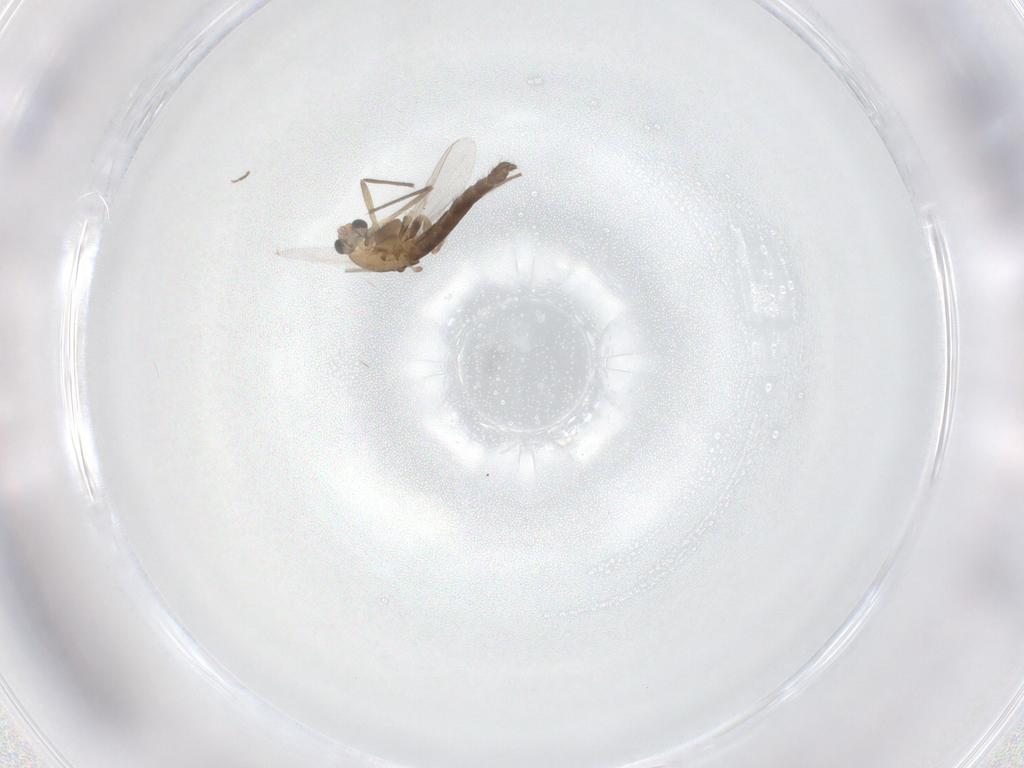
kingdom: Animalia
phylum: Arthropoda
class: Insecta
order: Diptera
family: Chironomidae
